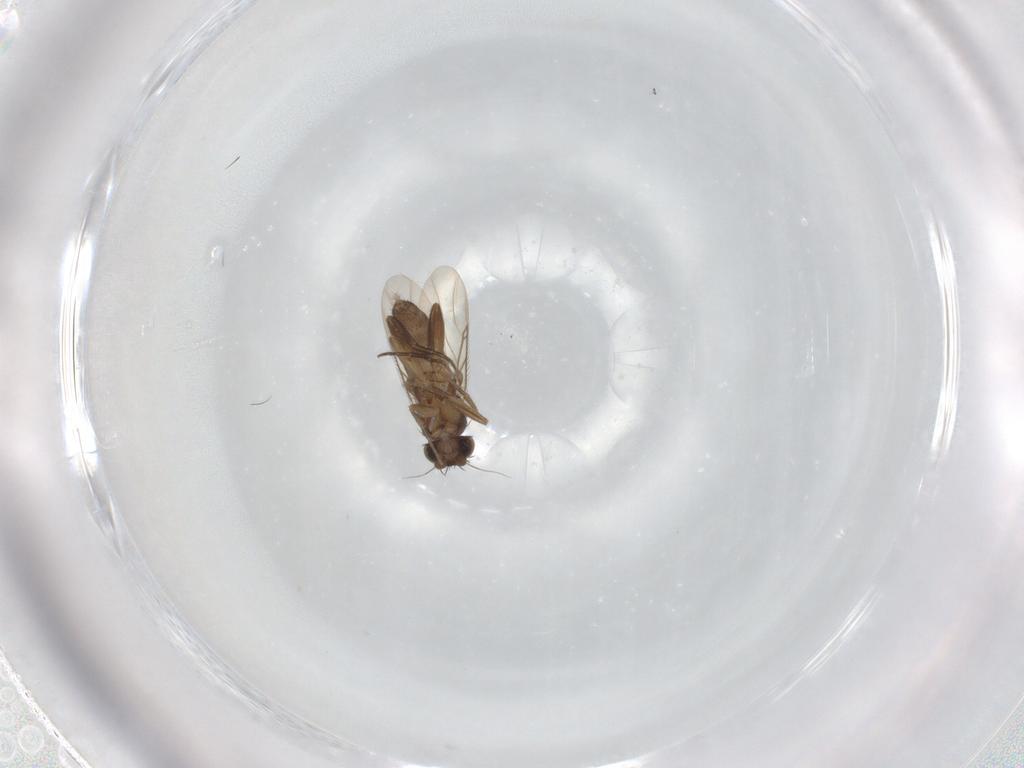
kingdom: Animalia
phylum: Arthropoda
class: Insecta
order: Diptera
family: Phoridae
